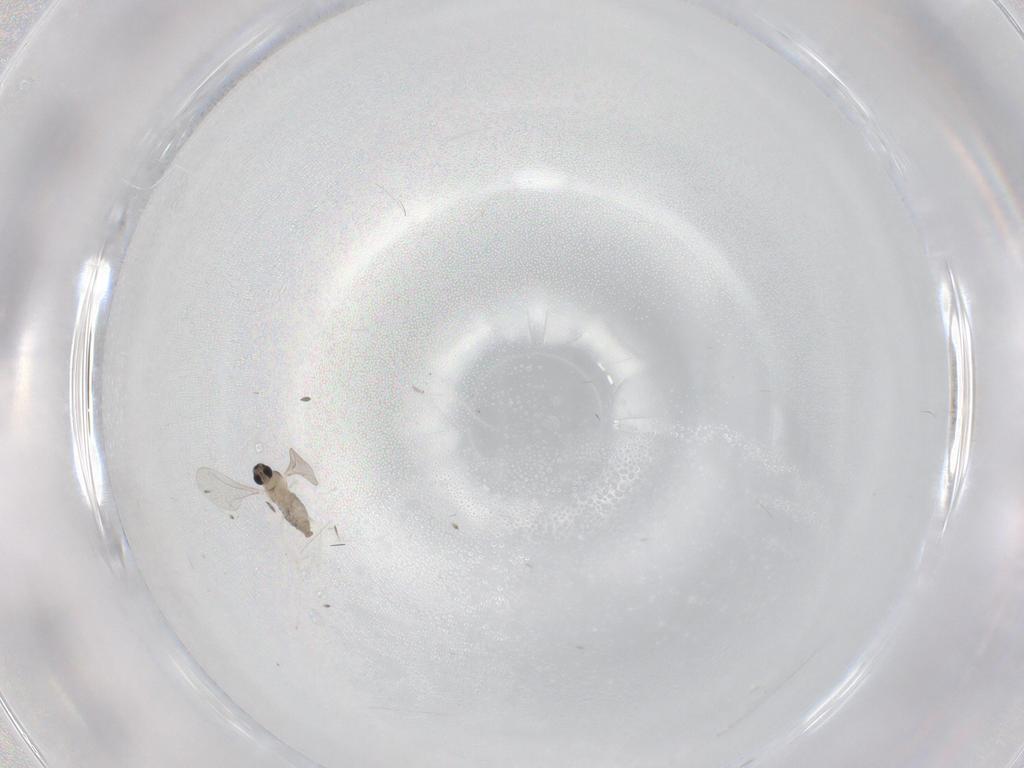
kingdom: Animalia
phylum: Arthropoda
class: Insecta
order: Diptera
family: Cecidomyiidae
